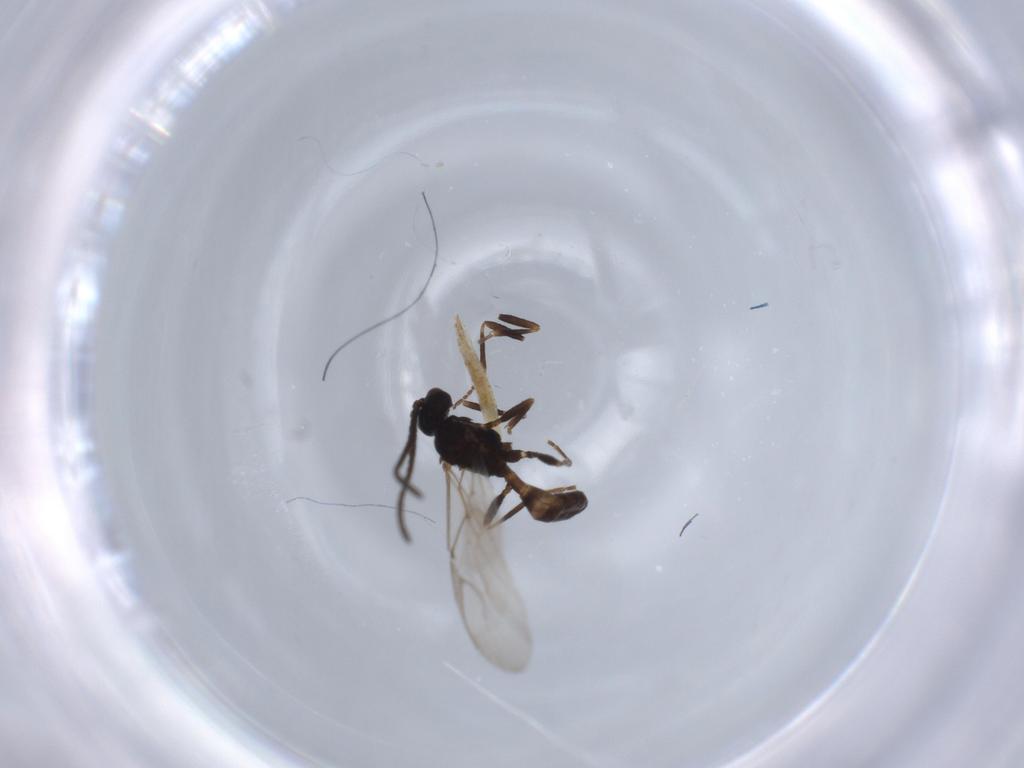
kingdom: Animalia
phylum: Arthropoda
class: Insecta
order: Hymenoptera
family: Braconidae
